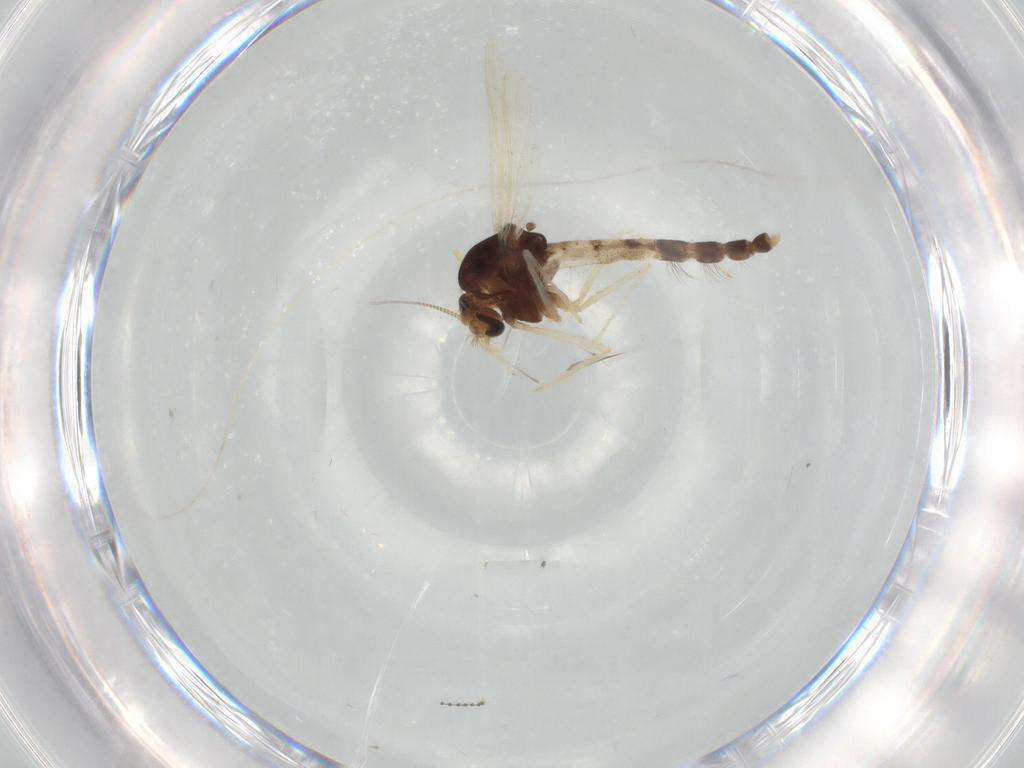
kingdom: Animalia
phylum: Arthropoda
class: Insecta
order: Diptera
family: Chironomidae
